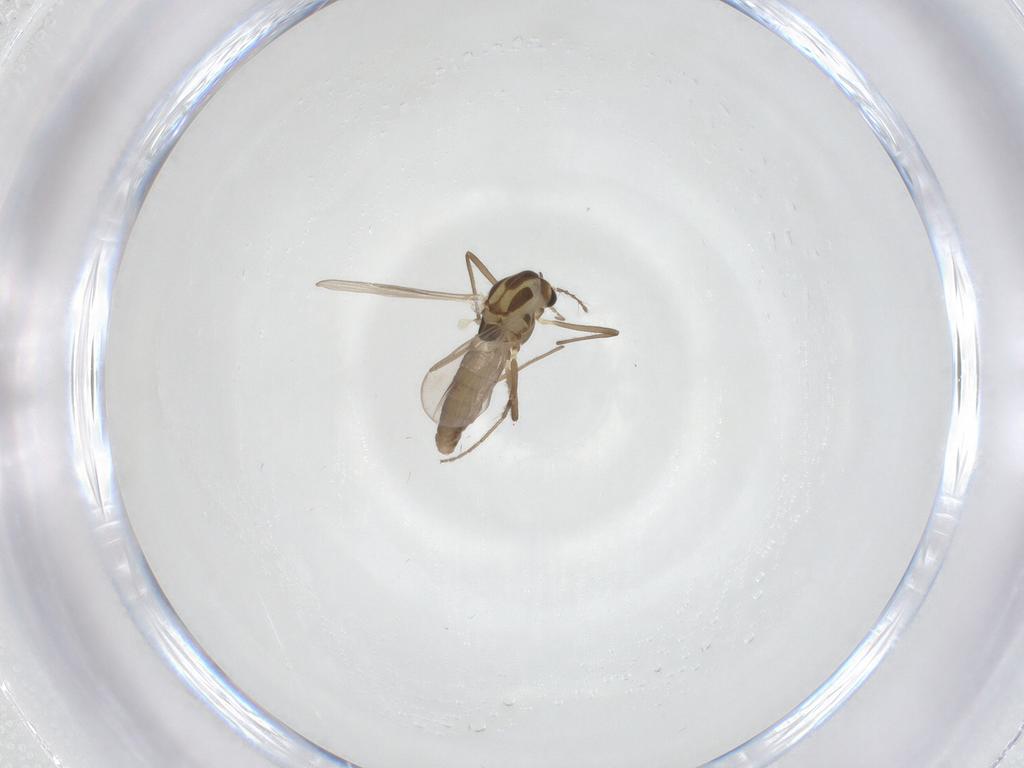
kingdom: Animalia
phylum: Arthropoda
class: Insecta
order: Diptera
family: Chironomidae
